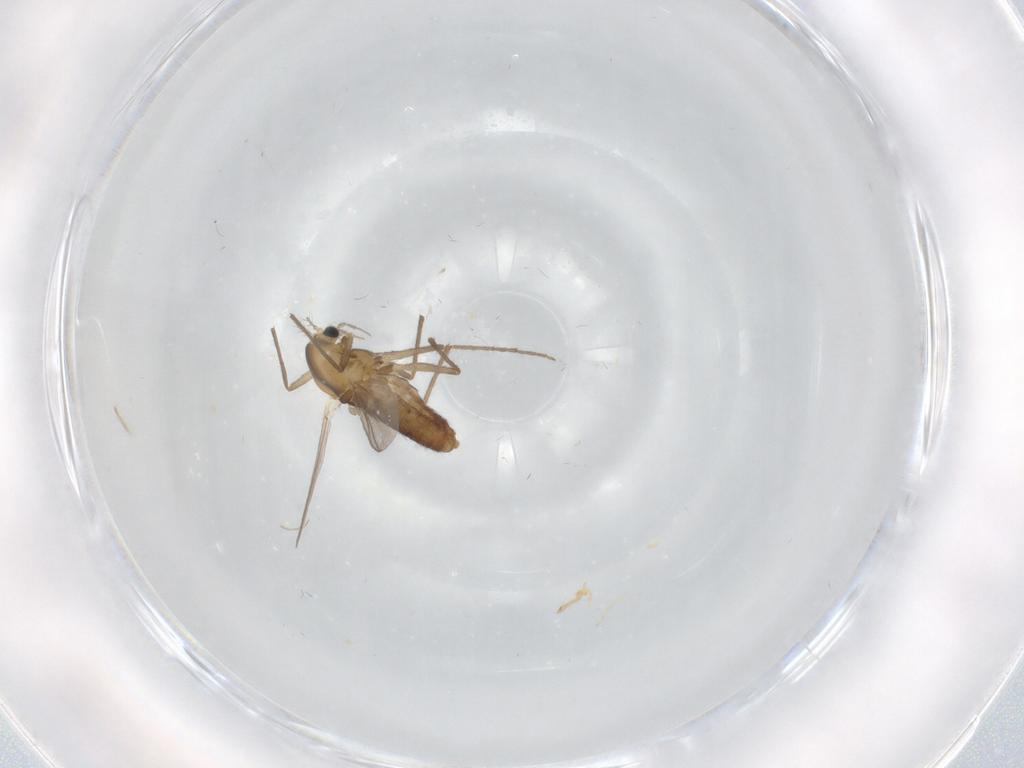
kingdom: Animalia
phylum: Arthropoda
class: Insecta
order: Diptera
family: Chironomidae
